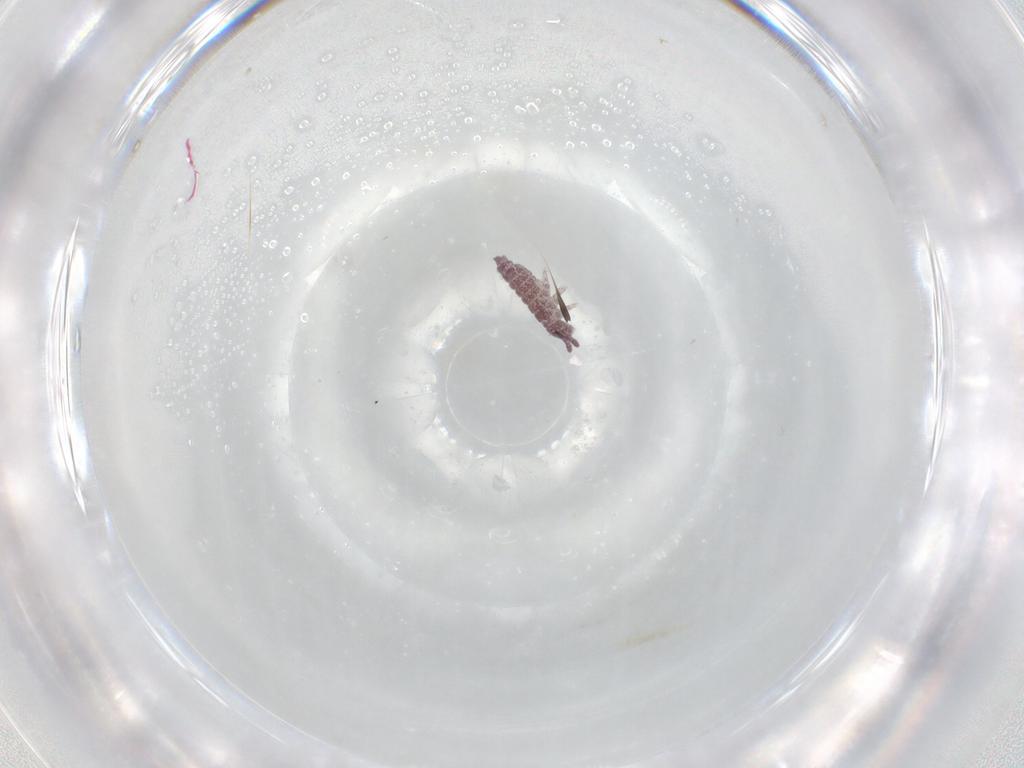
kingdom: Animalia
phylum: Arthropoda
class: Collembola
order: Poduromorpha
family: Hypogastruridae
